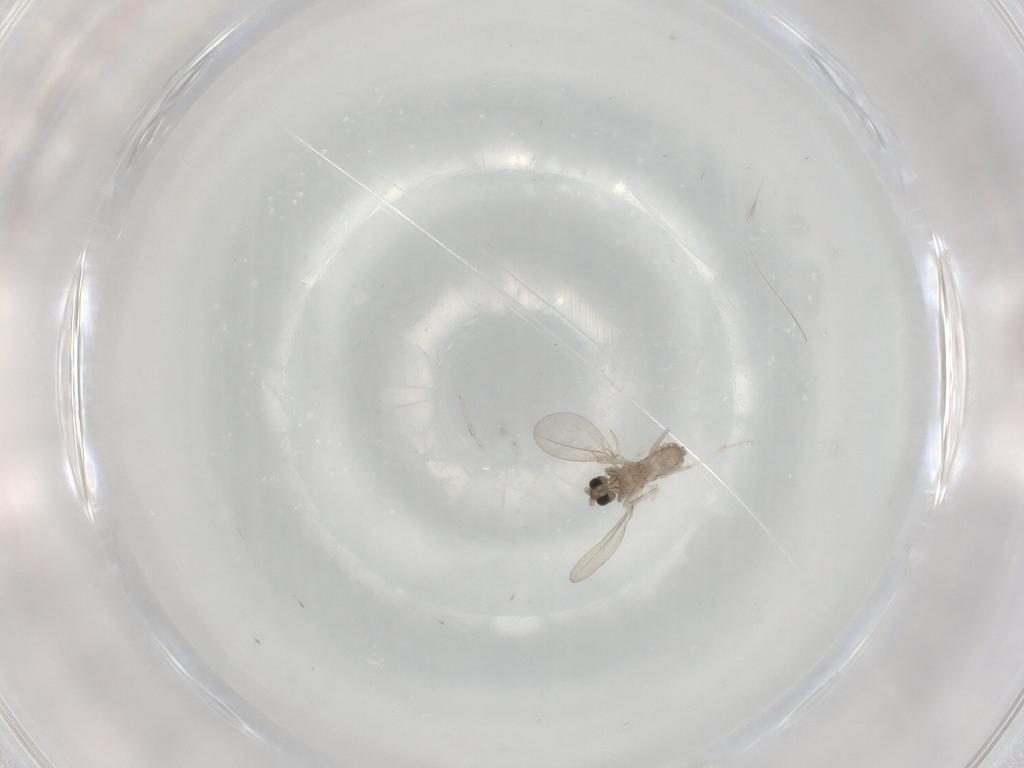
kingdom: Animalia
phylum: Arthropoda
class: Insecta
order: Diptera
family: Cecidomyiidae
